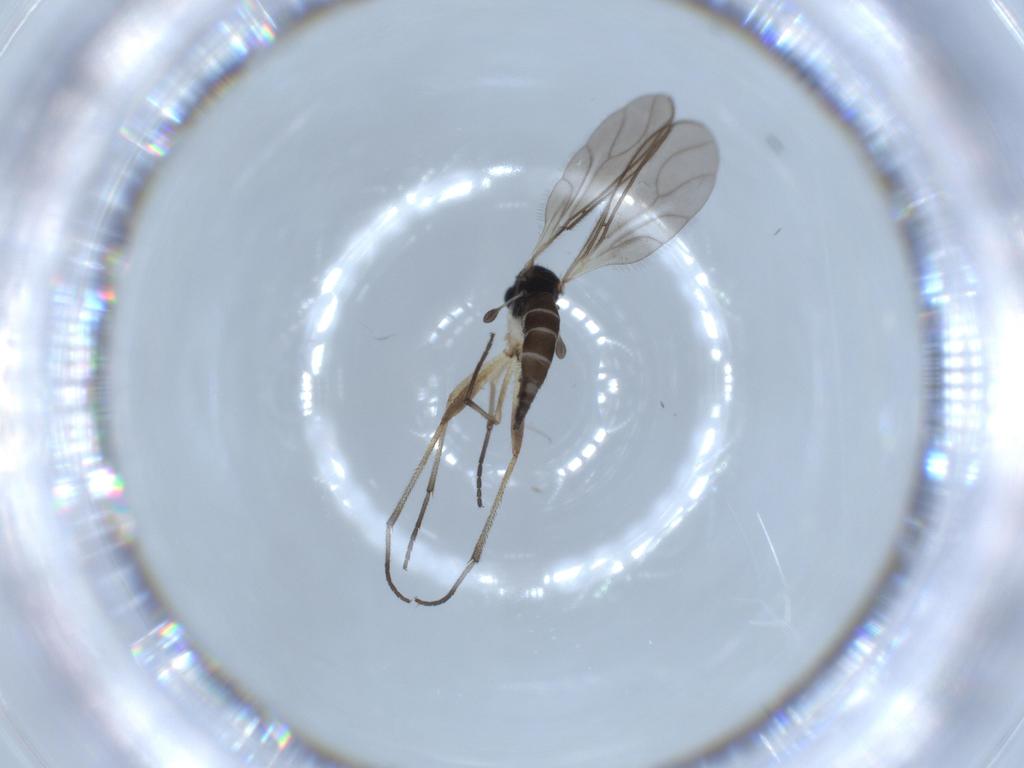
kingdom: Animalia
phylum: Arthropoda
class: Insecta
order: Diptera
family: Sciaridae
